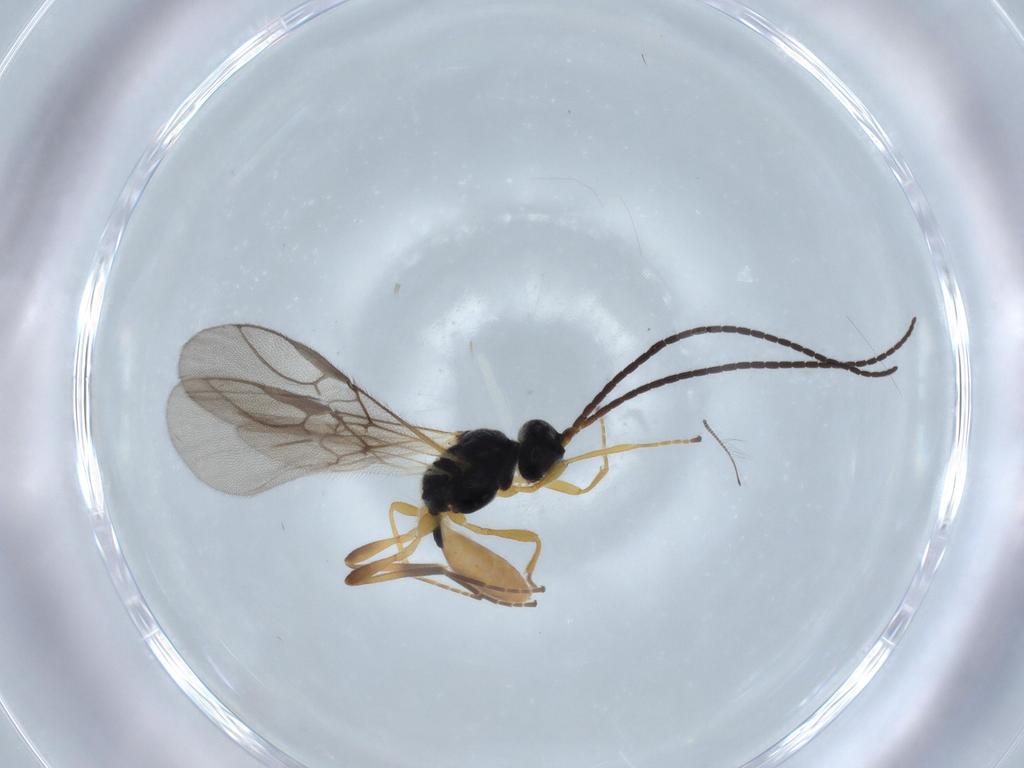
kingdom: Animalia
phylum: Arthropoda
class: Insecta
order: Hymenoptera
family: Braconidae
